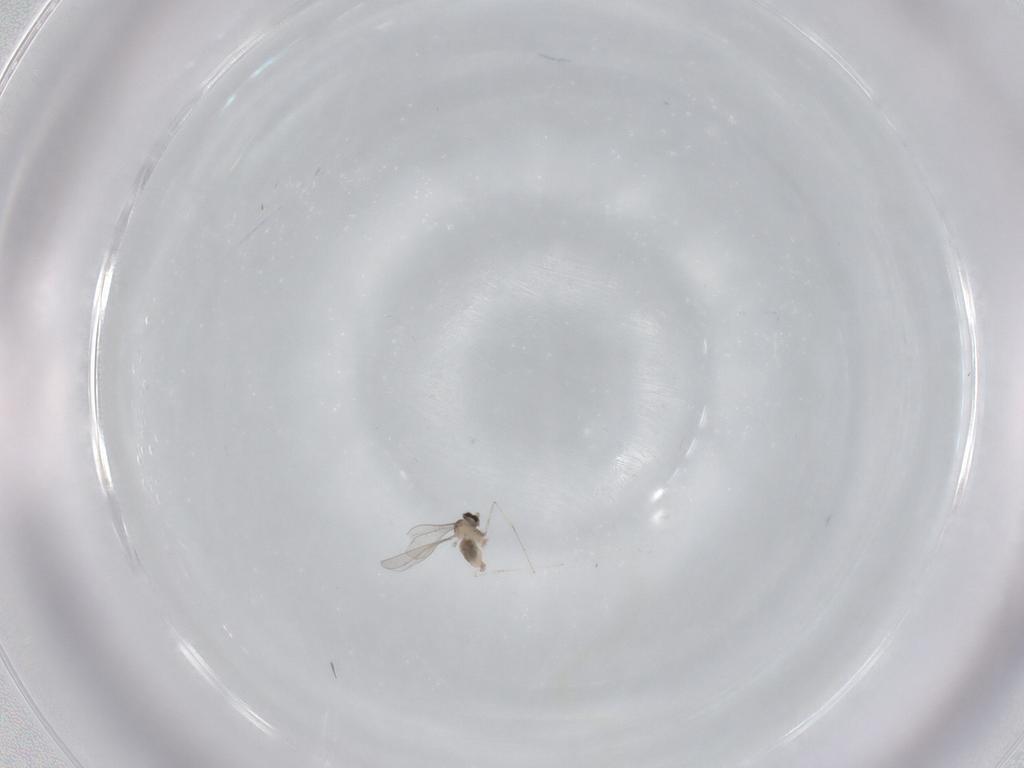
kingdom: Animalia
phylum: Arthropoda
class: Insecta
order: Diptera
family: Cecidomyiidae
